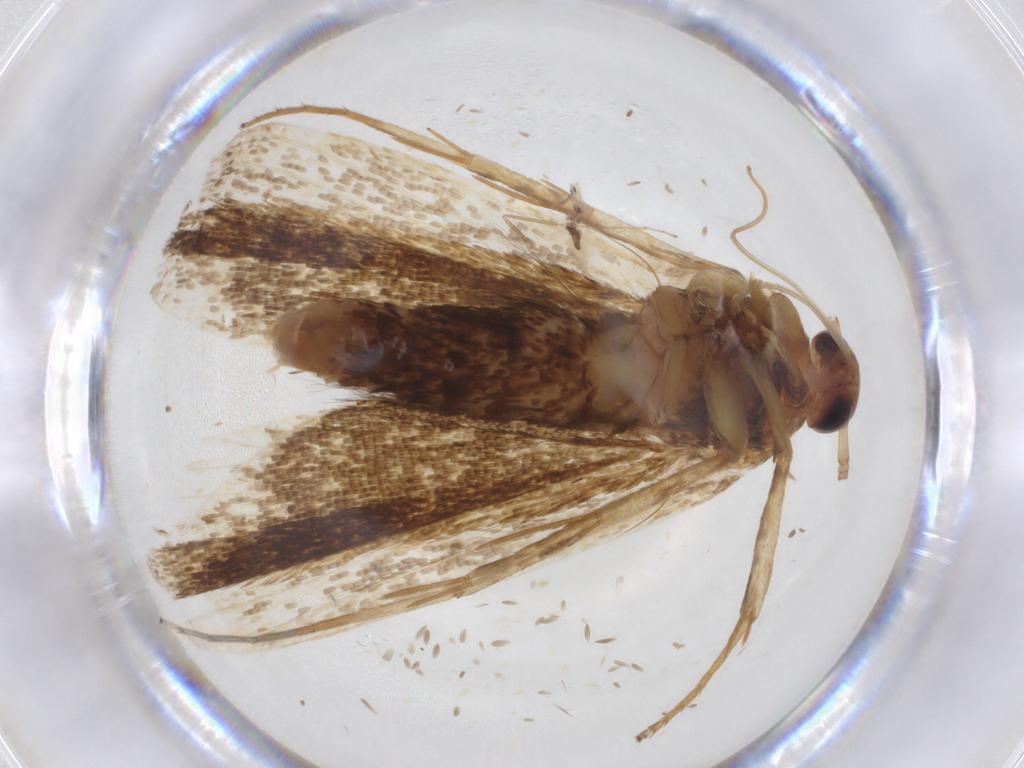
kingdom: Animalia
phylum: Arthropoda
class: Insecta
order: Lepidoptera
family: Lecithoceridae
